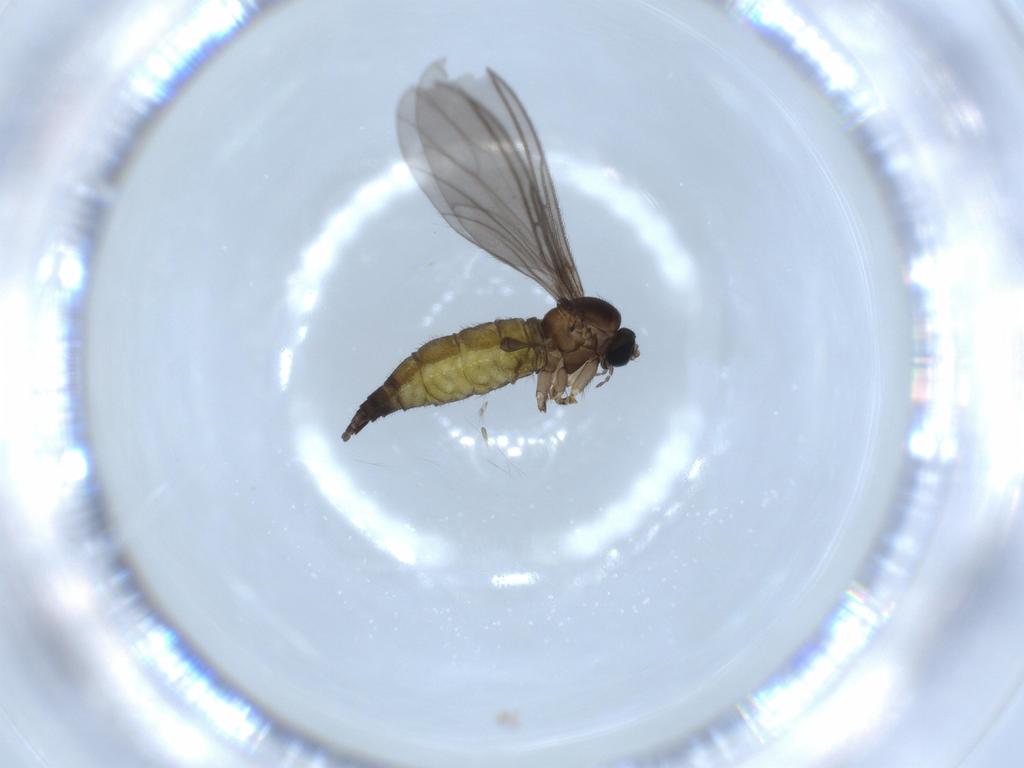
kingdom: Animalia
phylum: Arthropoda
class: Insecta
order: Diptera
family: Sciaridae
